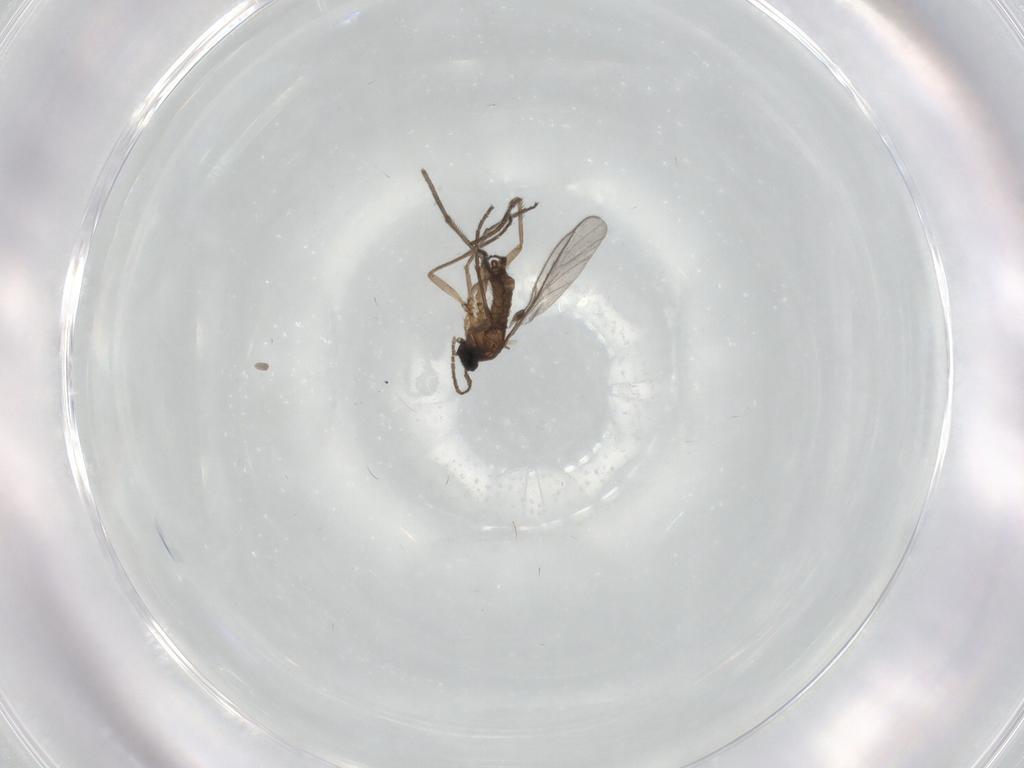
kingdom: Animalia
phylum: Arthropoda
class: Insecta
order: Diptera
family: Sciaridae
